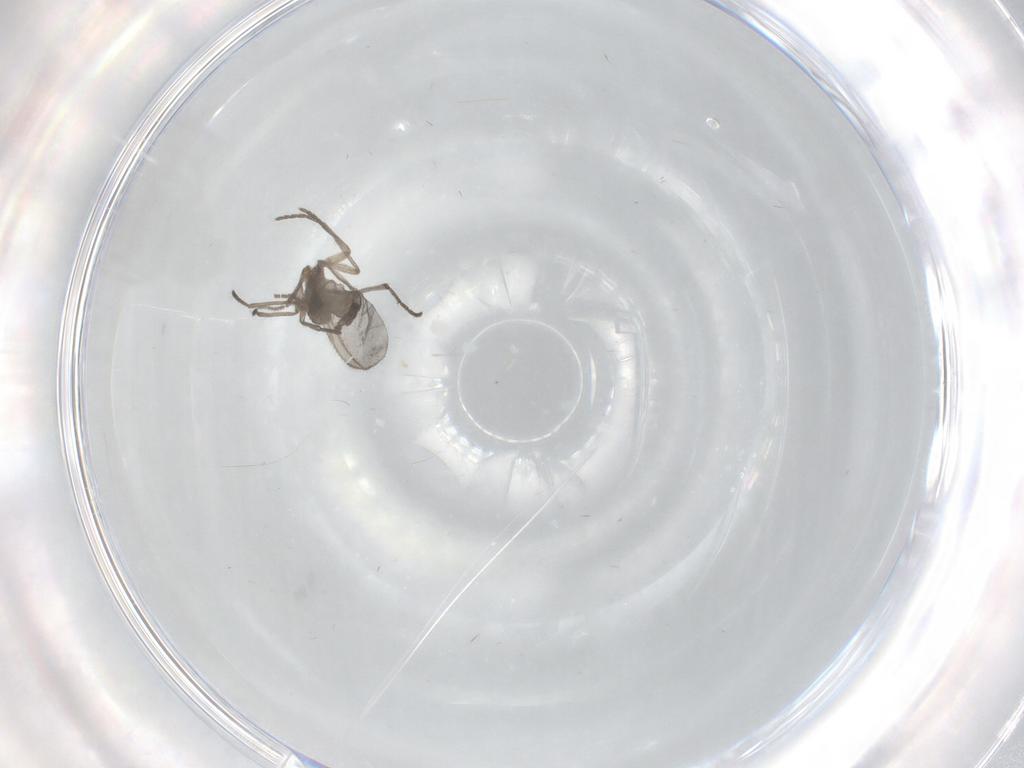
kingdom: Animalia
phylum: Arthropoda
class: Insecta
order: Diptera
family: Sciaridae
